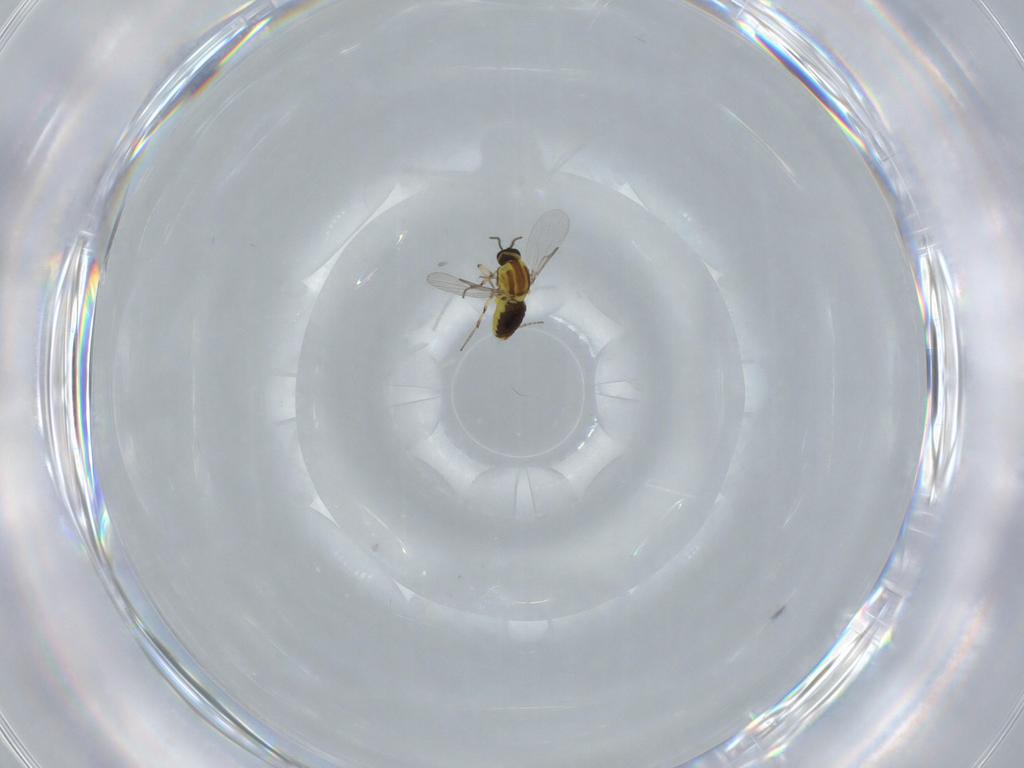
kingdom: Animalia
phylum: Arthropoda
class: Insecta
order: Diptera
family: Ceratopogonidae
